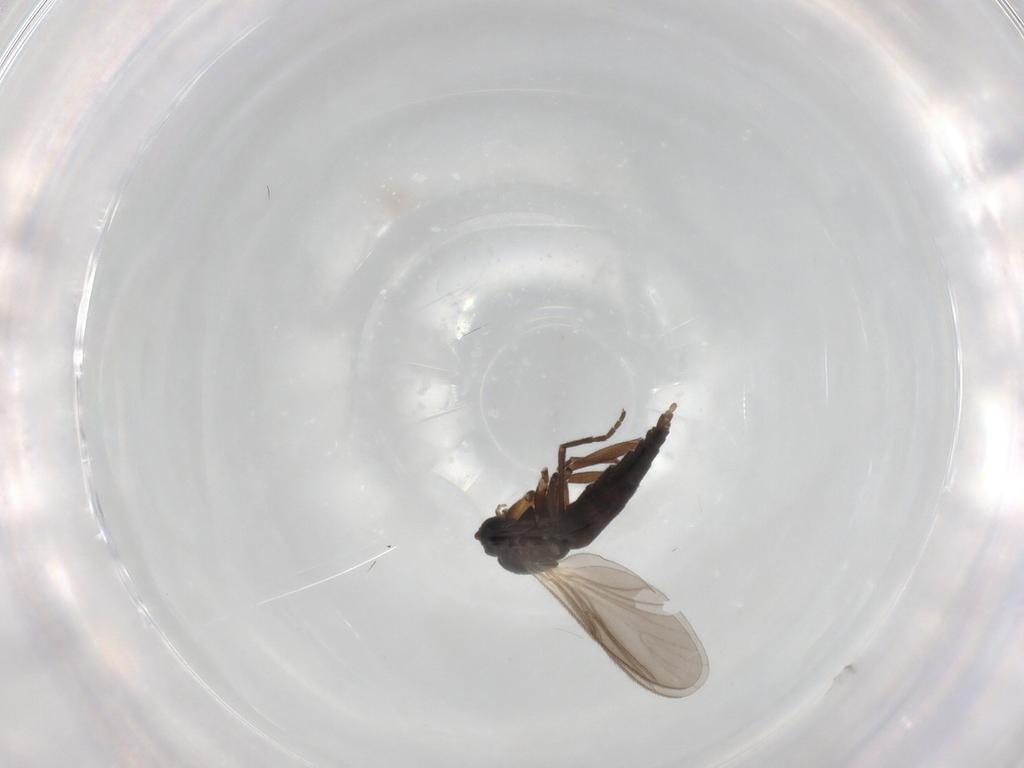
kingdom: Animalia
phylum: Arthropoda
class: Insecta
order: Diptera
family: Sciaridae
